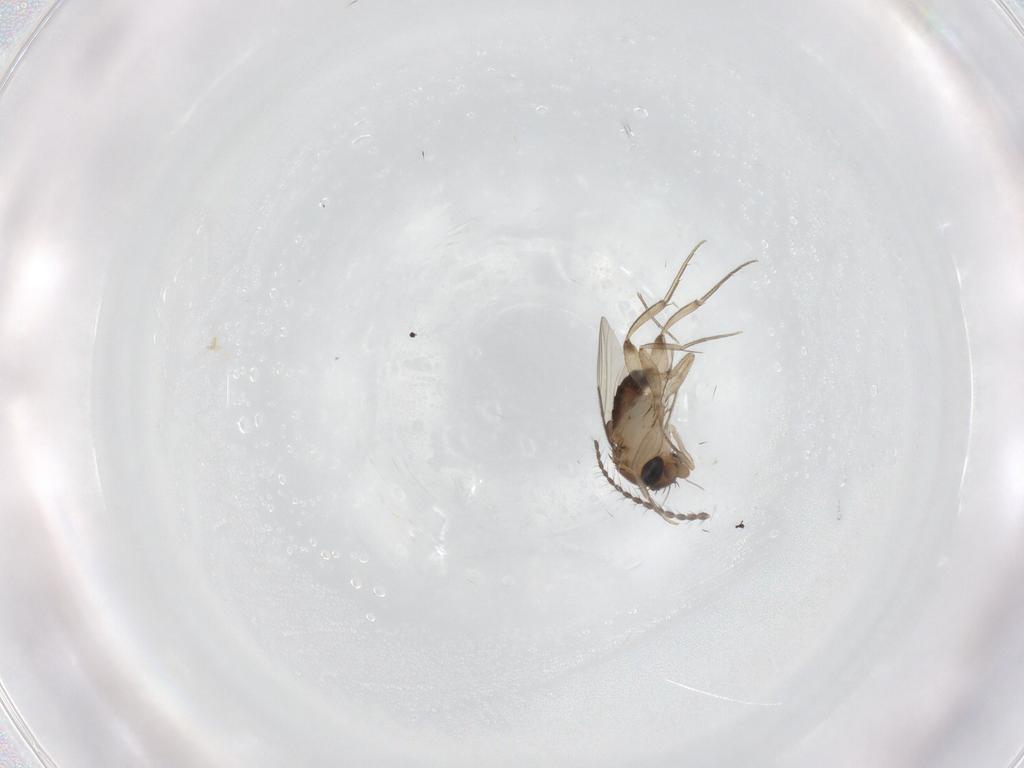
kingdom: Animalia
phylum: Arthropoda
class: Insecta
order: Diptera
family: Limoniidae
